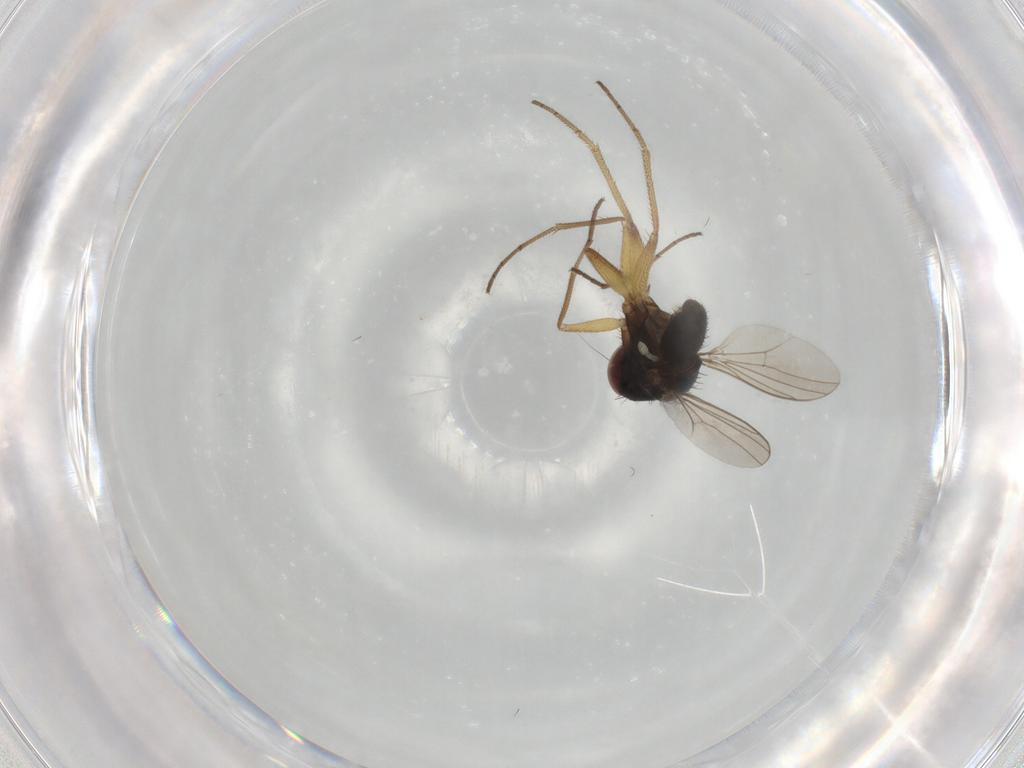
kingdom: Animalia
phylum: Arthropoda
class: Insecta
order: Diptera
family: Dolichopodidae
